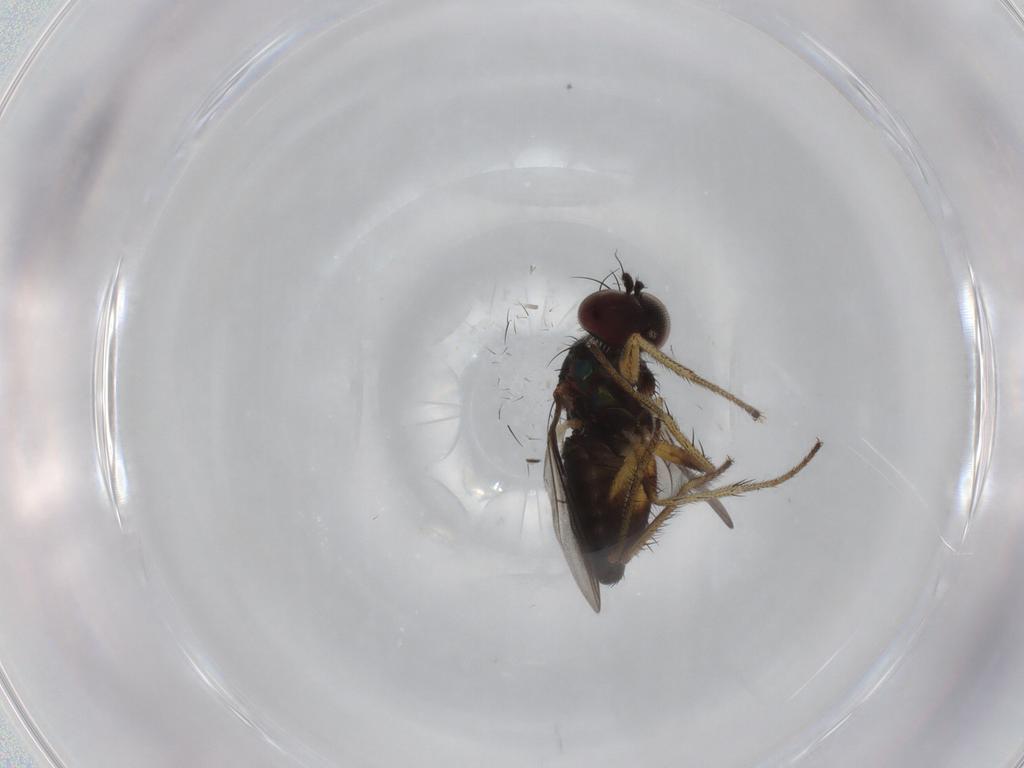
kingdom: Animalia
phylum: Arthropoda
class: Insecta
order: Diptera
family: Dolichopodidae
